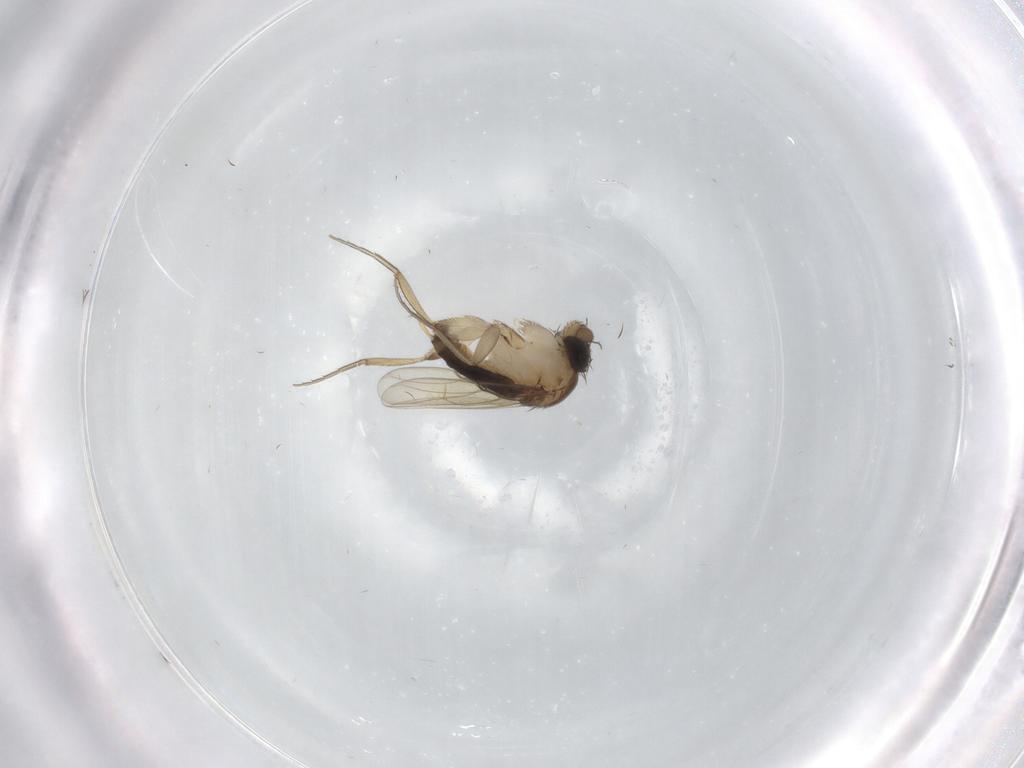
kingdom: Animalia
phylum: Arthropoda
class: Insecta
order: Diptera
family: Phoridae
